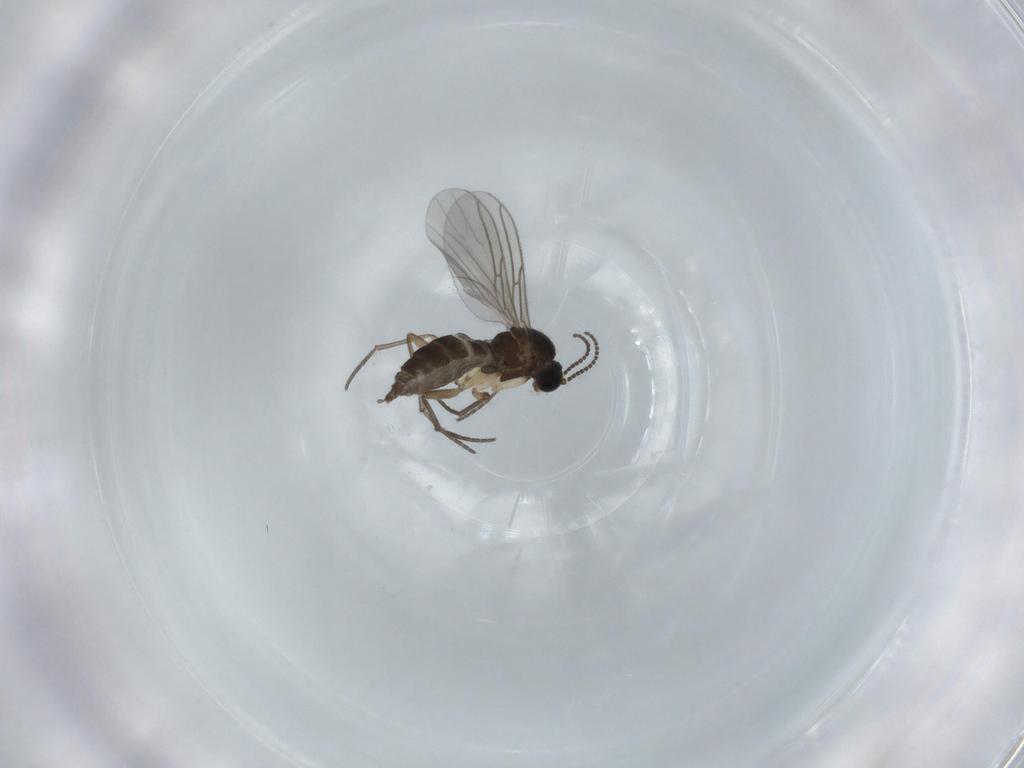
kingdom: Animalia
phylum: Arthropoda
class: Insecta
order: Diptera
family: Sciaridae
